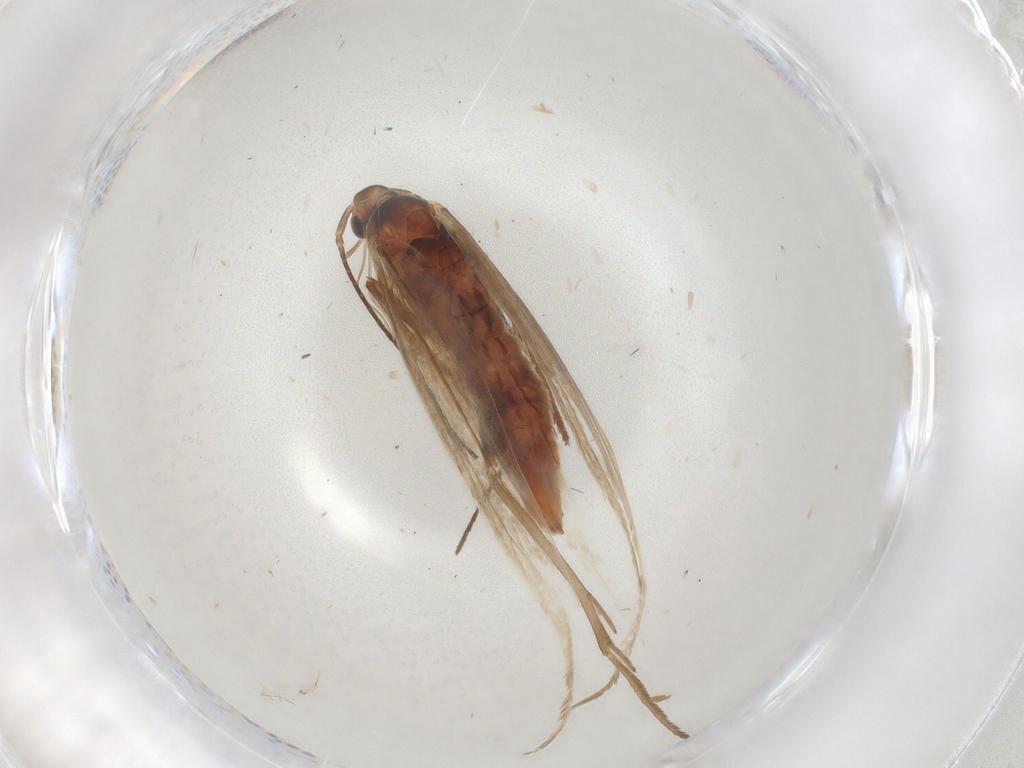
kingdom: Animalia
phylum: Arthropoda
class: Insecta
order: Lepidoptera
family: Coleophoridae
